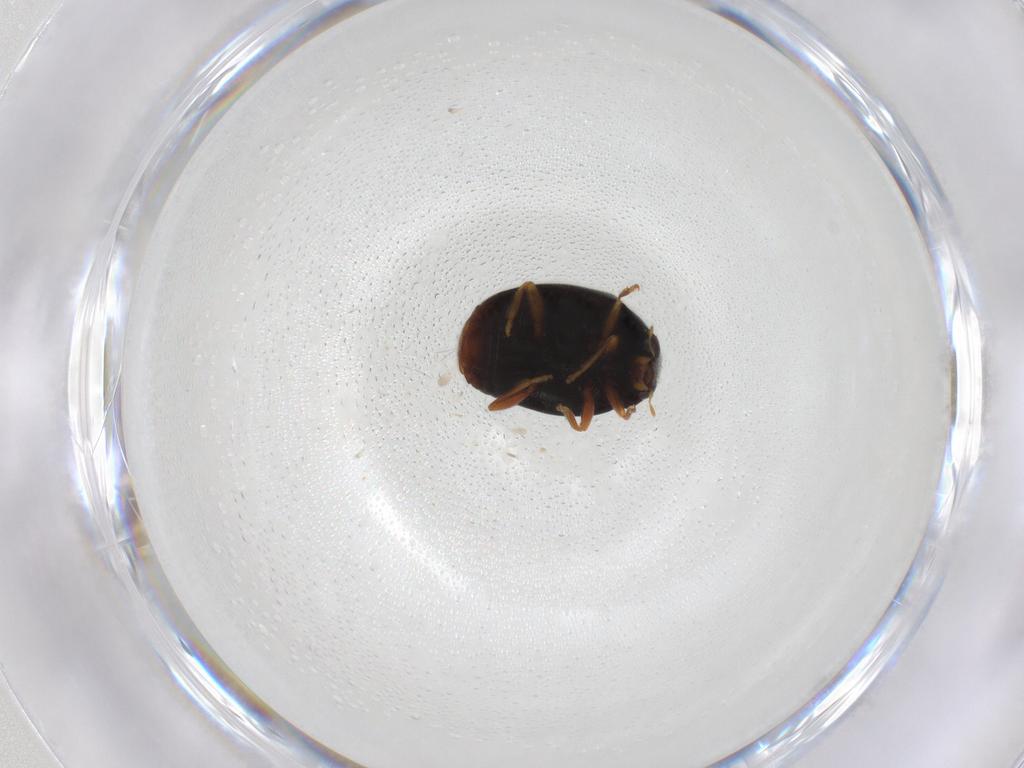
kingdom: Animalia
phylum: Arthropoda
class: Insecta
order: Coleoptera
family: Coccinellidae
